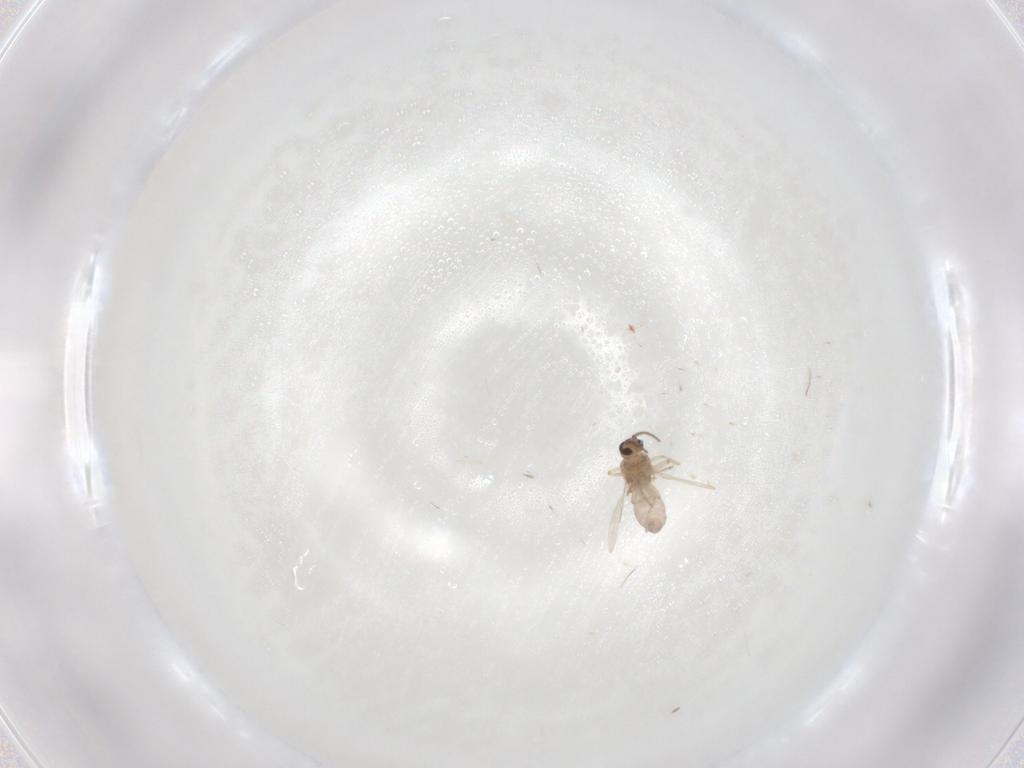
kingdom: Animalia
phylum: Arthropoda
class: Insecta
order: Diptera
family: Ceratopogonidae
